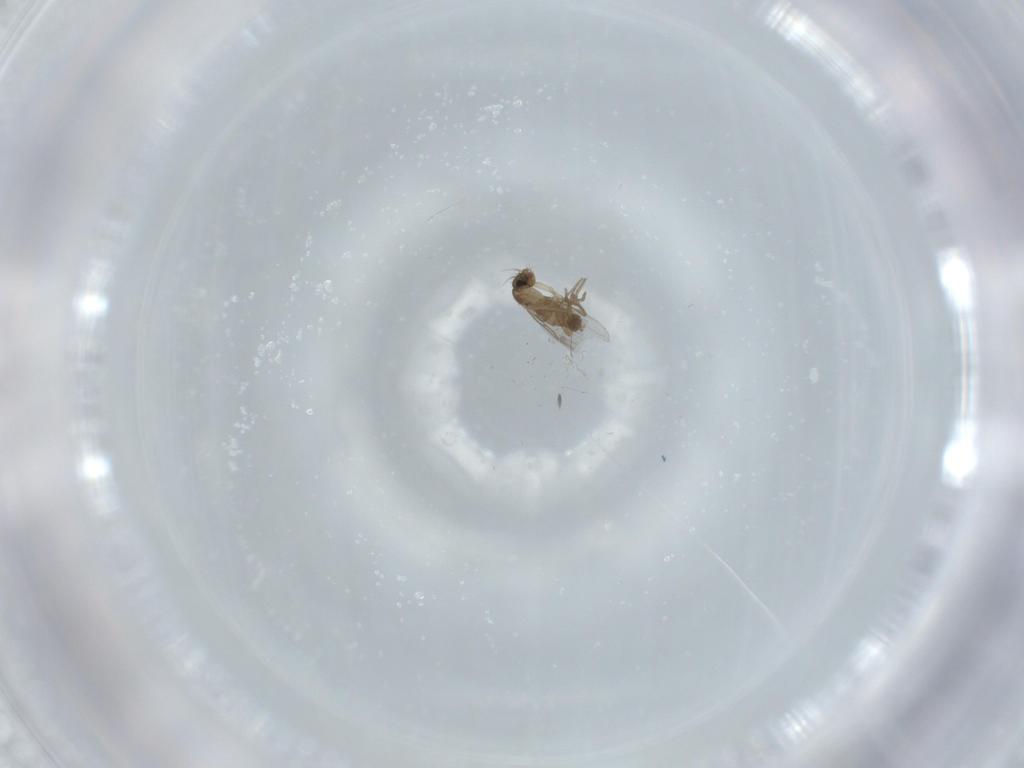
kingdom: Animalia
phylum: Arthropoda
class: Insecta
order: Diptera
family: Phoridae
